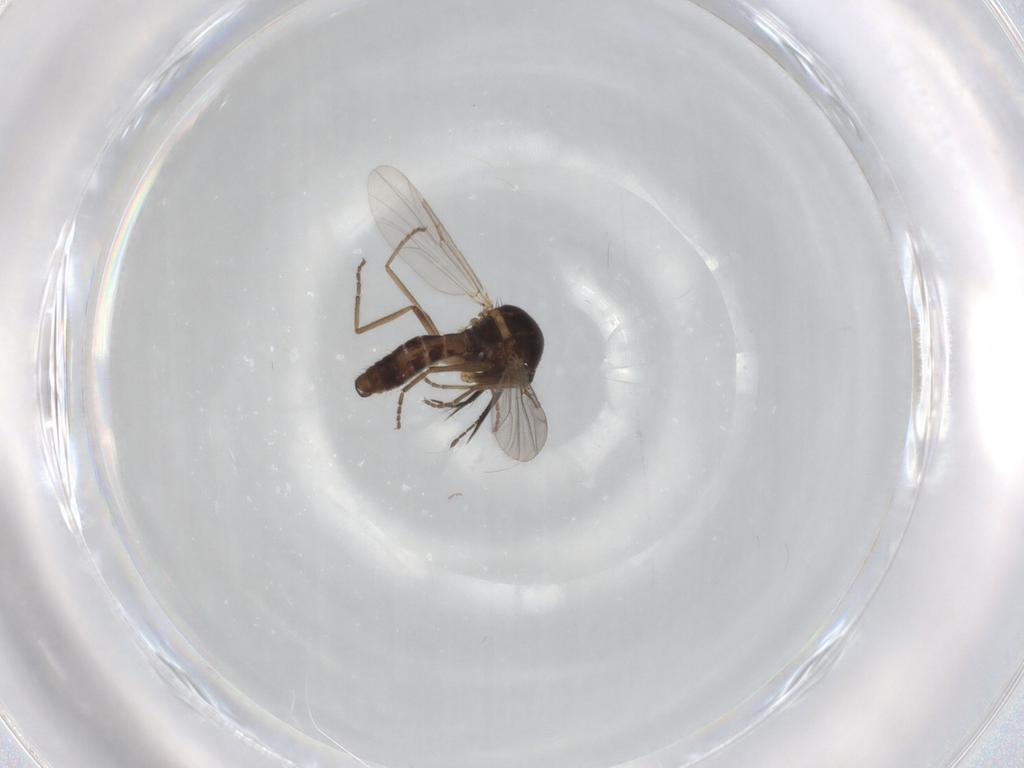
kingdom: Animalia
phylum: Arthropoda
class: Insecta
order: Diptera
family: Ceratopogonidae
